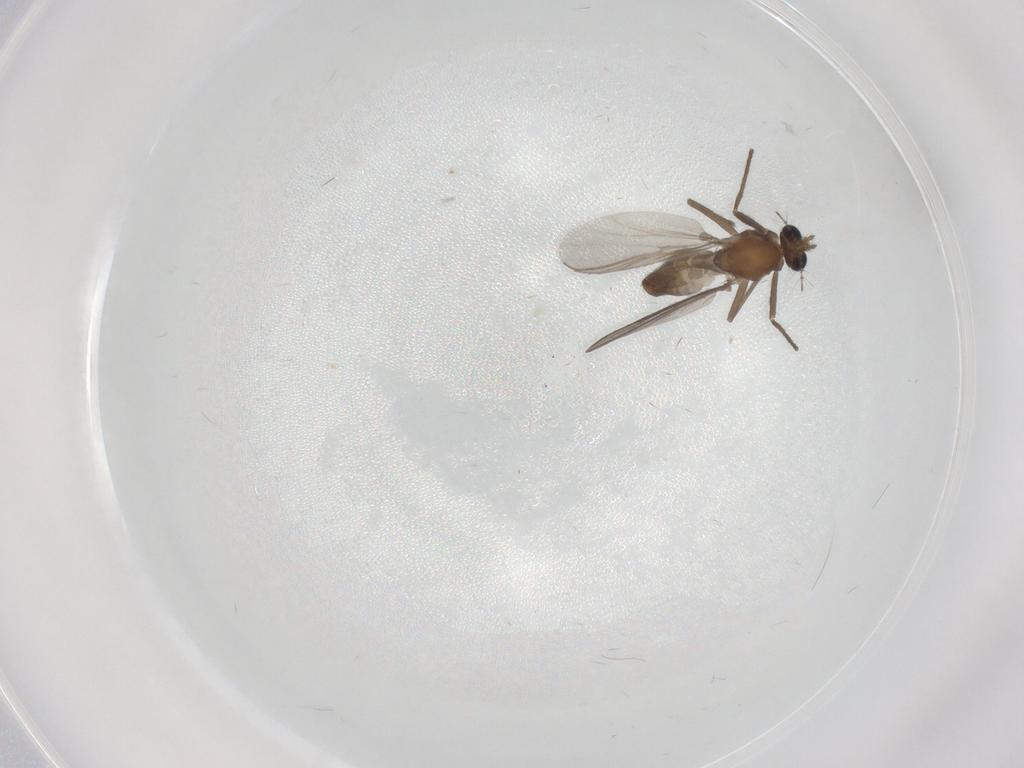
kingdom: Animalia
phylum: Arthropoda
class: Insecta
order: Diptera
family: Chironomidae
